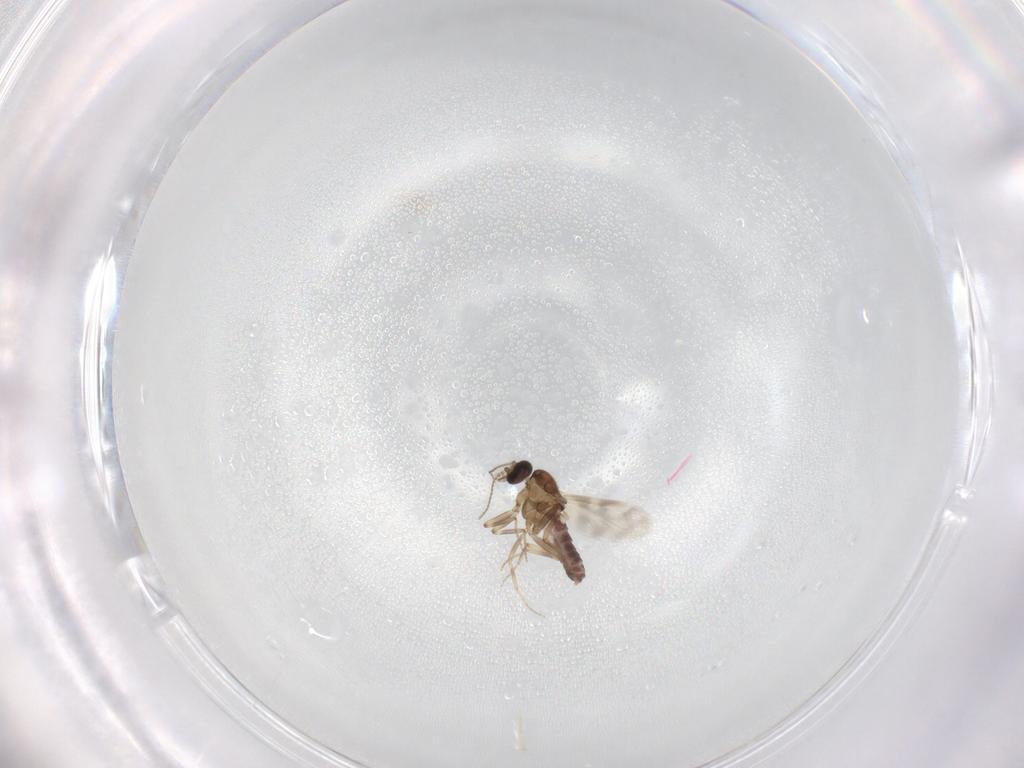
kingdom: Animalia
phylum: Arthropoda
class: Insecta
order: Diptera
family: Ceratopogonidae
